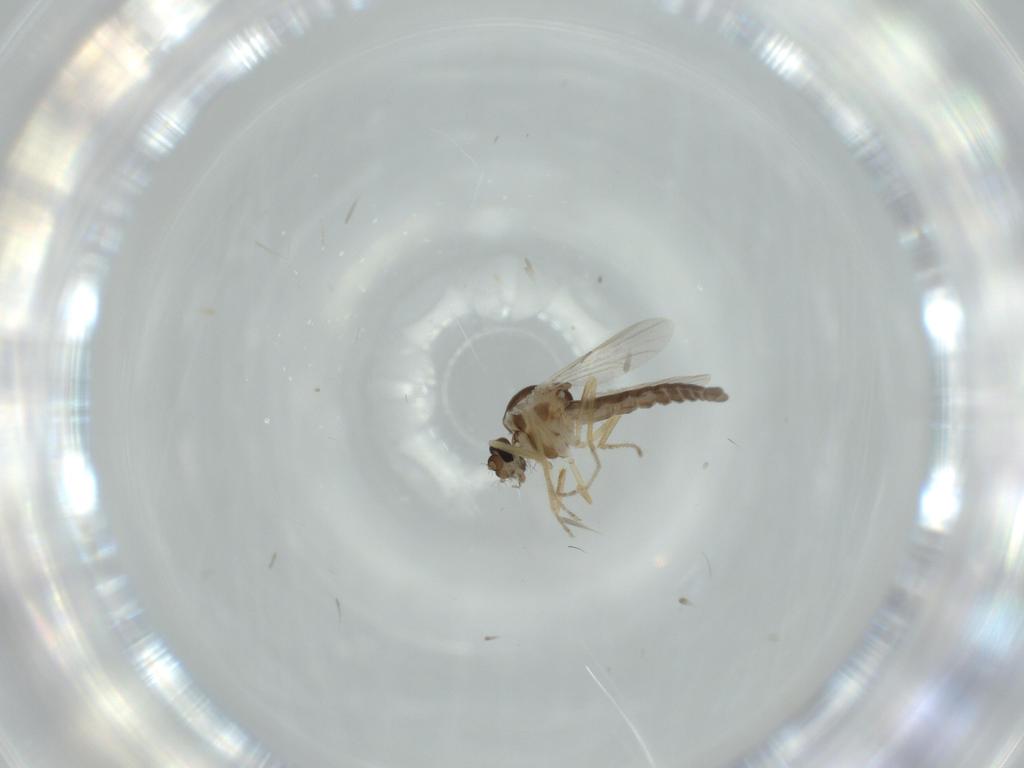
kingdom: Animalia
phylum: Arthropoda
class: Insecta
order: Diptera
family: Ceratopogonidae
